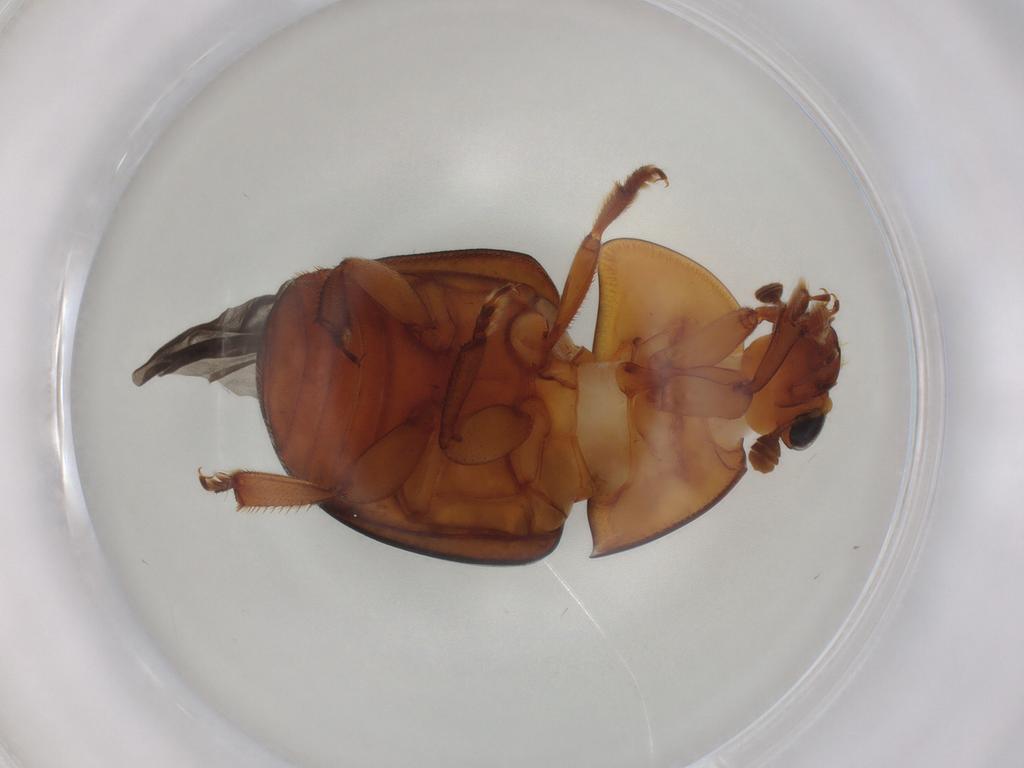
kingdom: Animalia
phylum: Arthropoda
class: Insecta
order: Coleoptera
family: Nitidulidae
